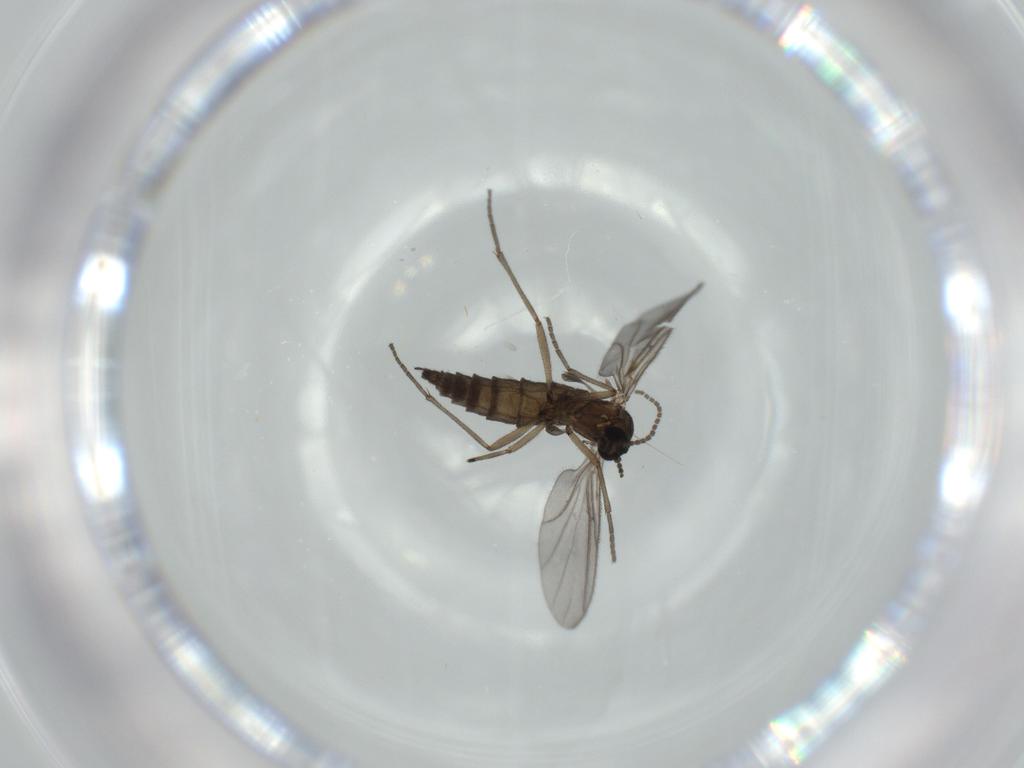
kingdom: Animalia
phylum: Arthropoda
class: Insecta
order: Diptera
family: Sciaridae
